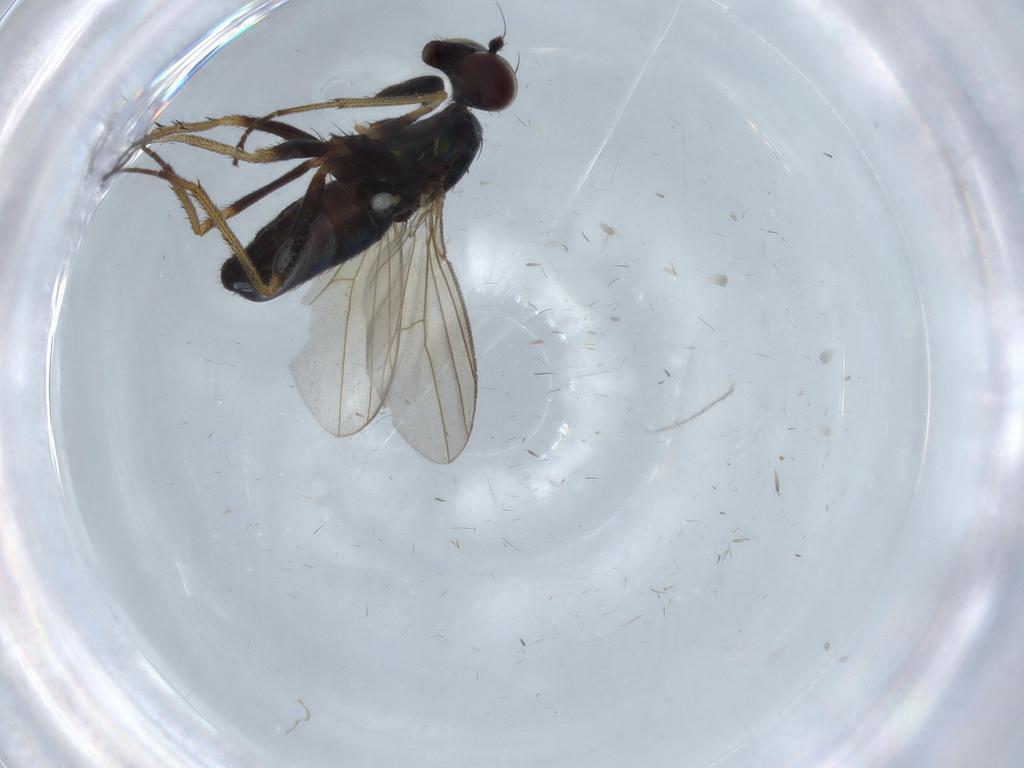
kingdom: Animalia
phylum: Arthropoda
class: Insecta
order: Diptera
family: Dolichopodidae
